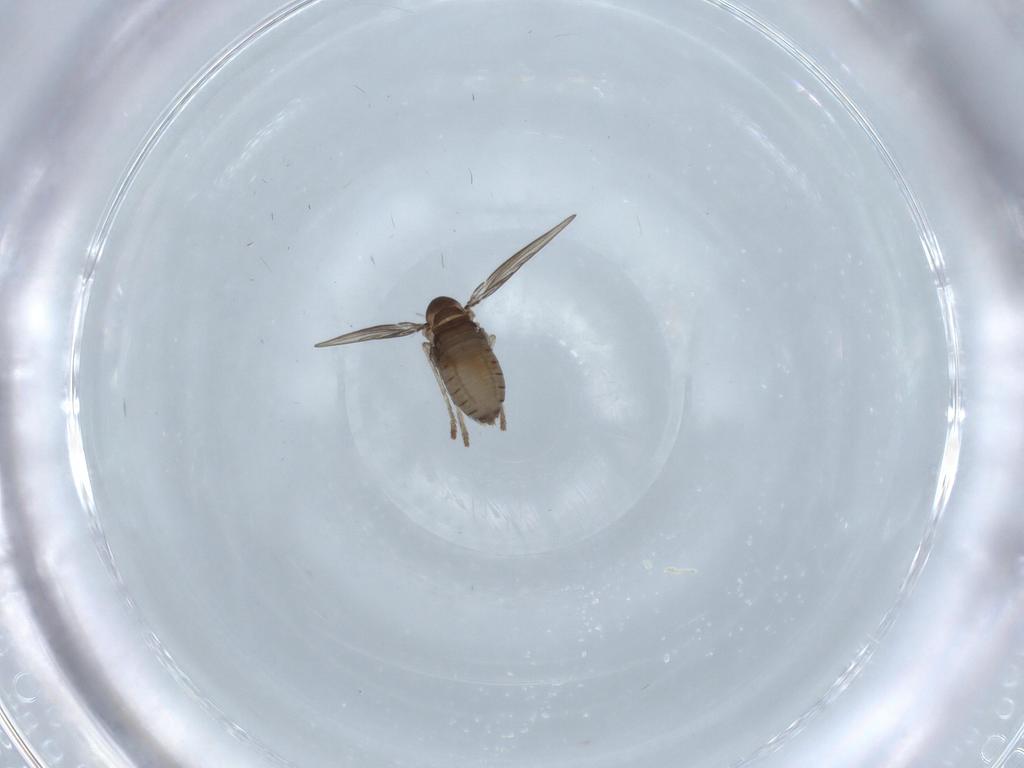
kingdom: Animalia
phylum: Arthropoda
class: Insecta
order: Diptera
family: Psychodidae
